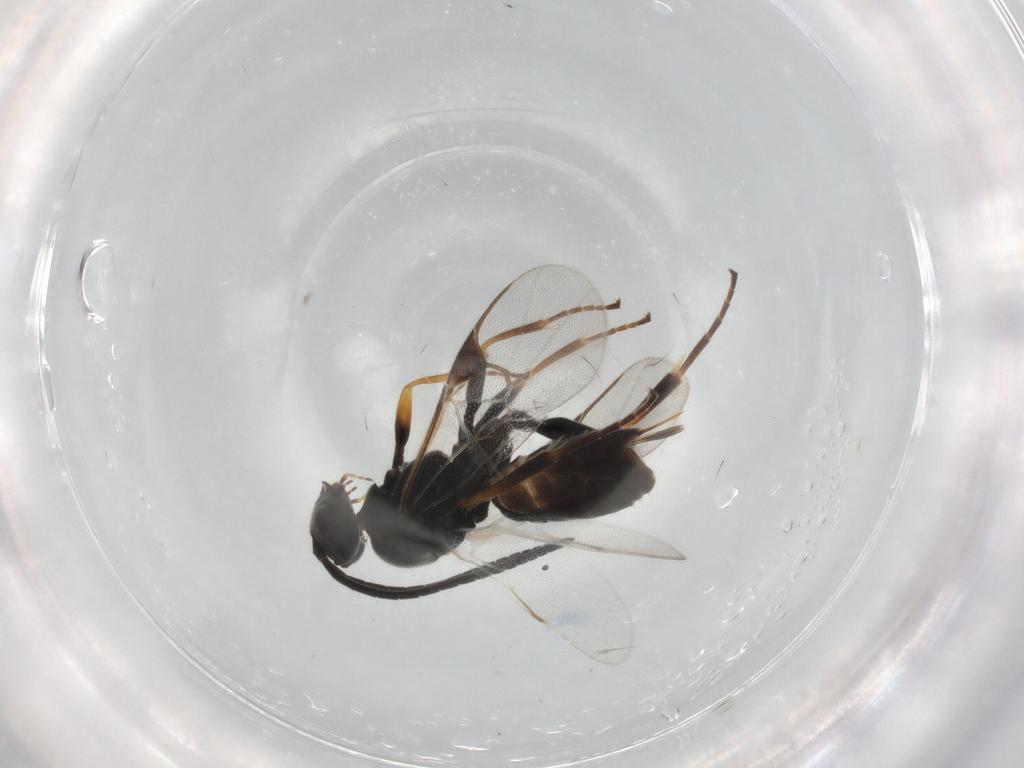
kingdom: Animalia
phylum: Arthropoda
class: Insecta
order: Hymenoptera
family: Braconidae
